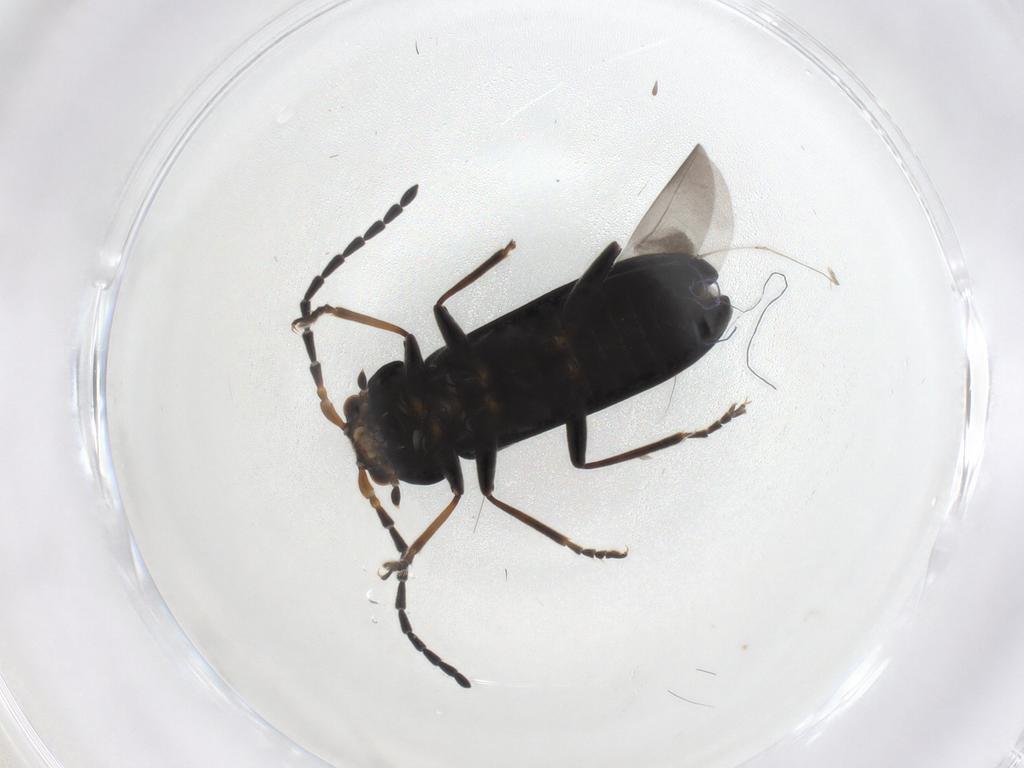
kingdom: Animalia
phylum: Arthropoda
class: Insecta
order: Coleoptera
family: Cantharidae
